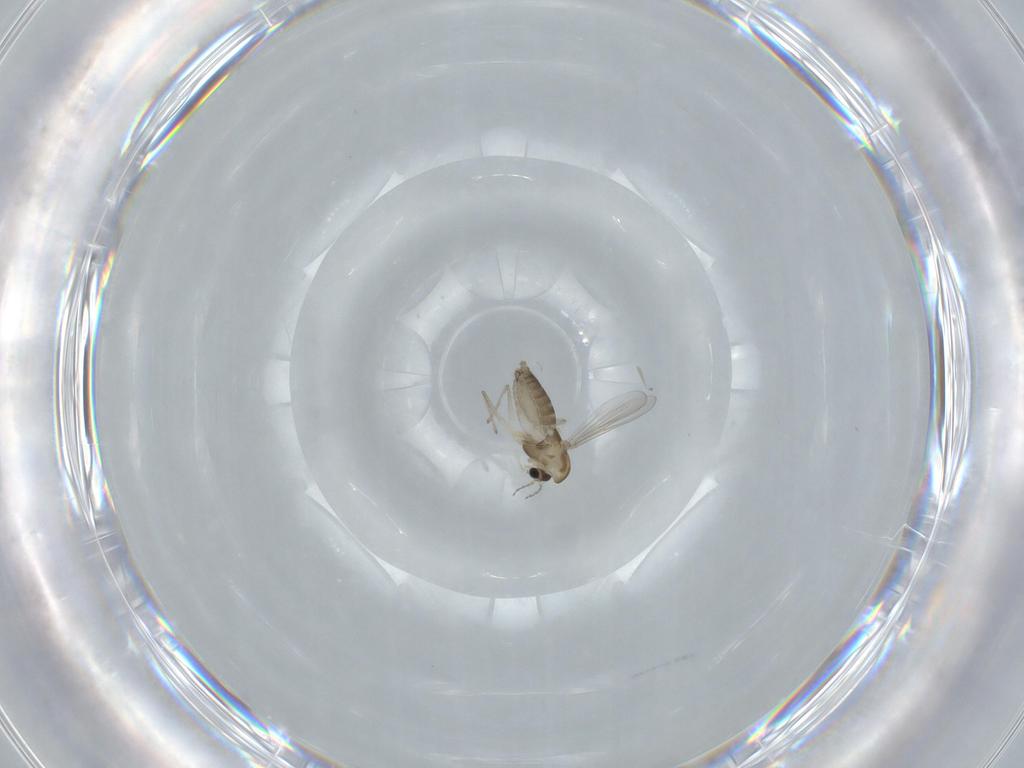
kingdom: Animalia
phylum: Arthropoda
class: Insecta
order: Diptera
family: Chironomidae
